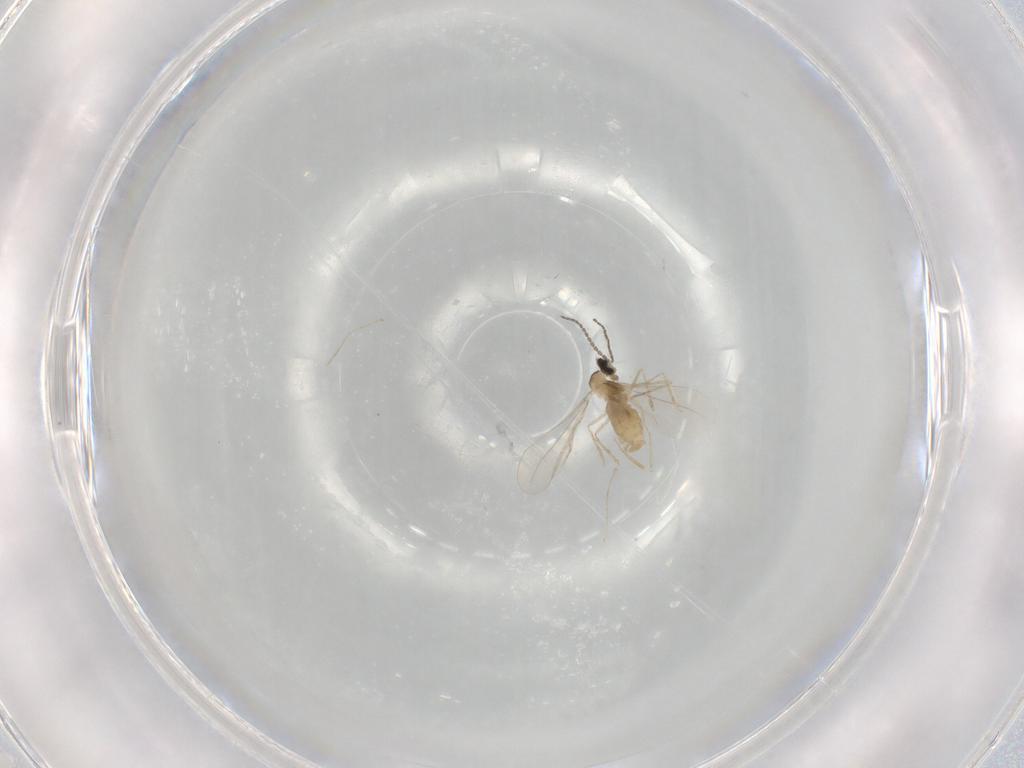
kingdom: Animalia
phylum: Arthropoda
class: Insecta
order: Diptera
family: Cecidomyiidae
